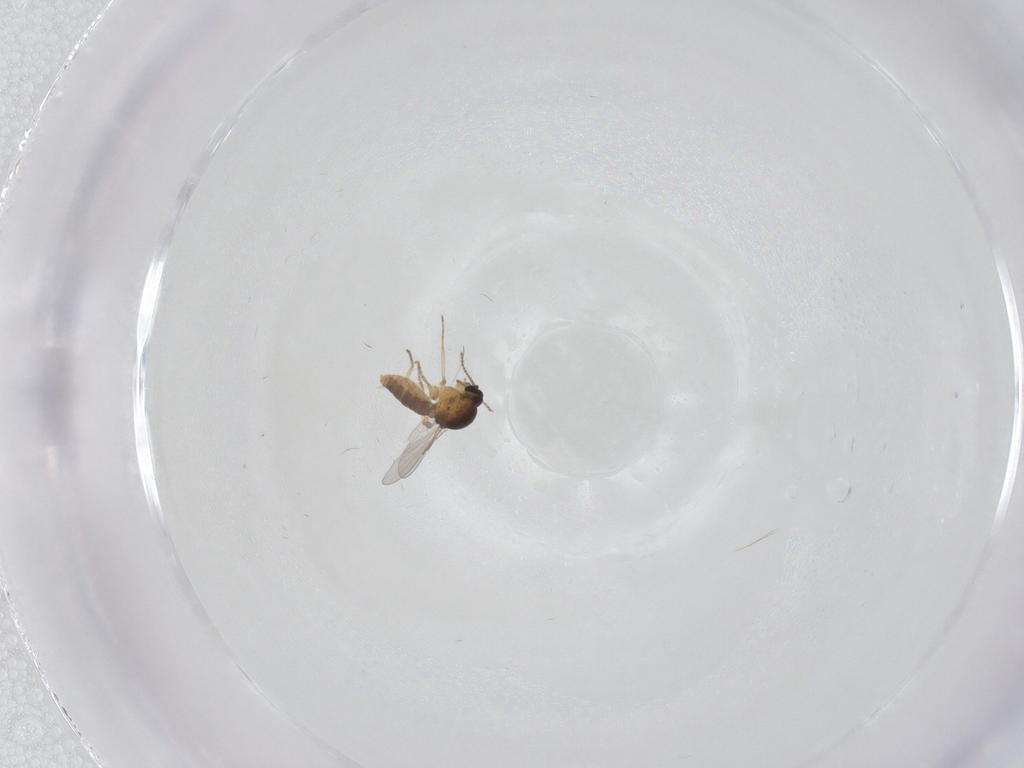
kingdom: Animalia
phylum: Arthropoda
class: Insecta
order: Diptera
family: Ceratopogonidae
